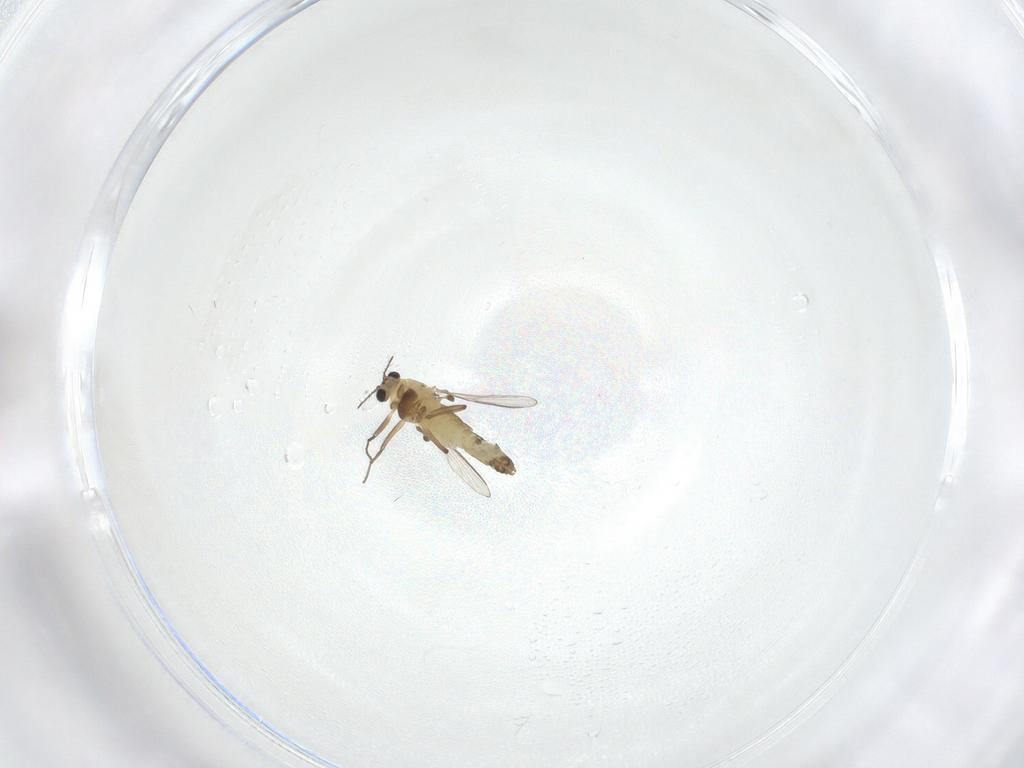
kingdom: Animalia
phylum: Arthropoda
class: Insecta
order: Diptera
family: Chironomidae
